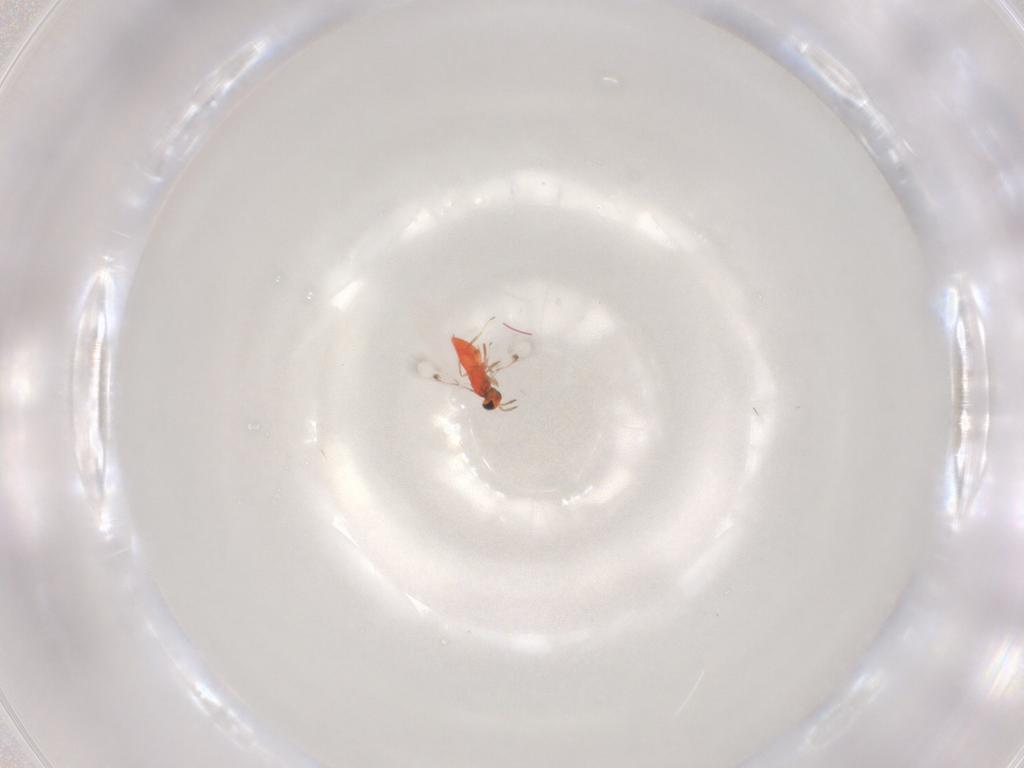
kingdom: Animalia
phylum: Arthropoda
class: Insecta
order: Hymenoptera
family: Trichogrammatidae
